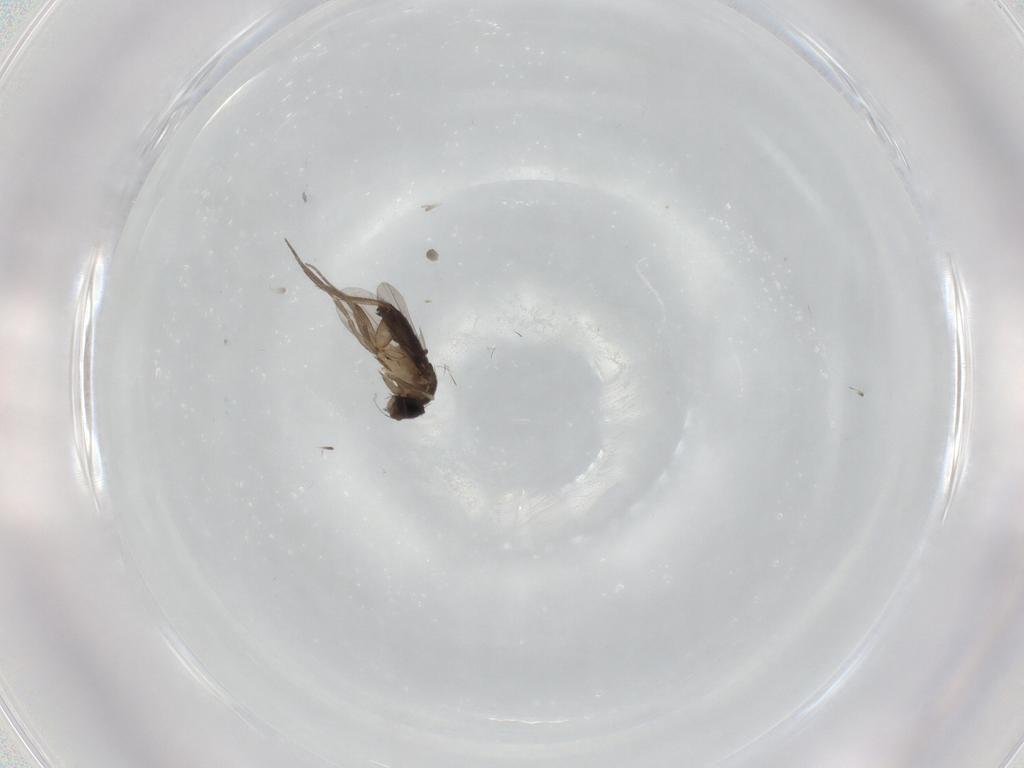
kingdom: Animalia
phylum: Arthropoda
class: Insecta
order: Diptera
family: Phoridae
